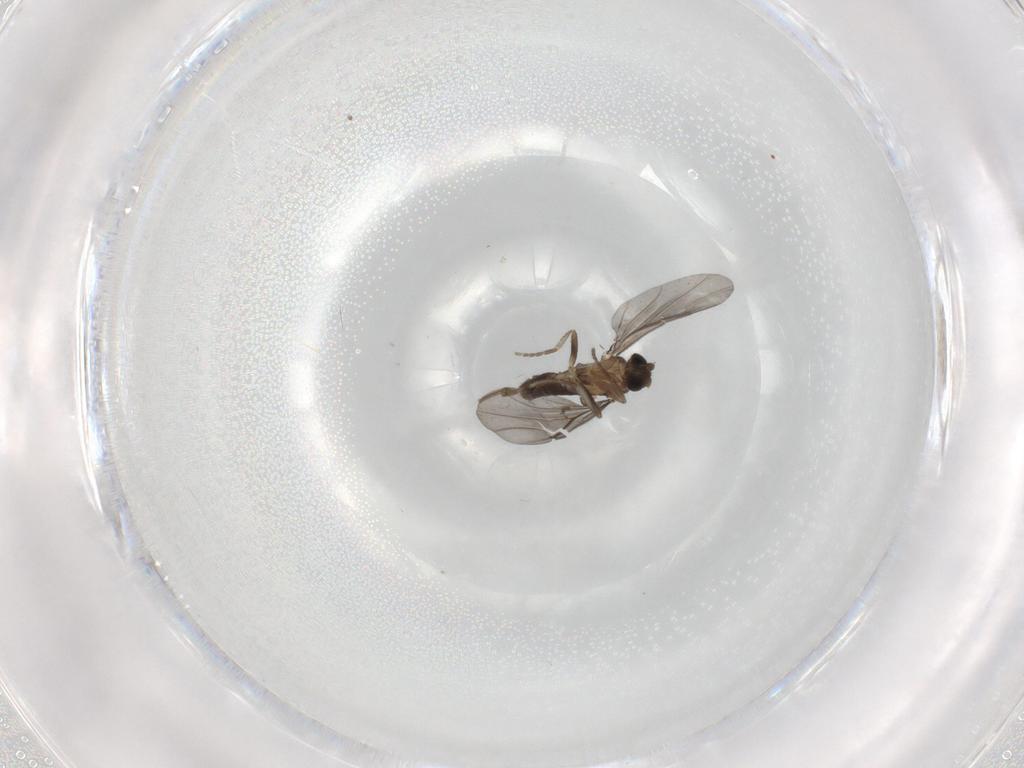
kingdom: Animalia
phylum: Arthropoda
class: Insecta
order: Diptera
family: Phoridae
